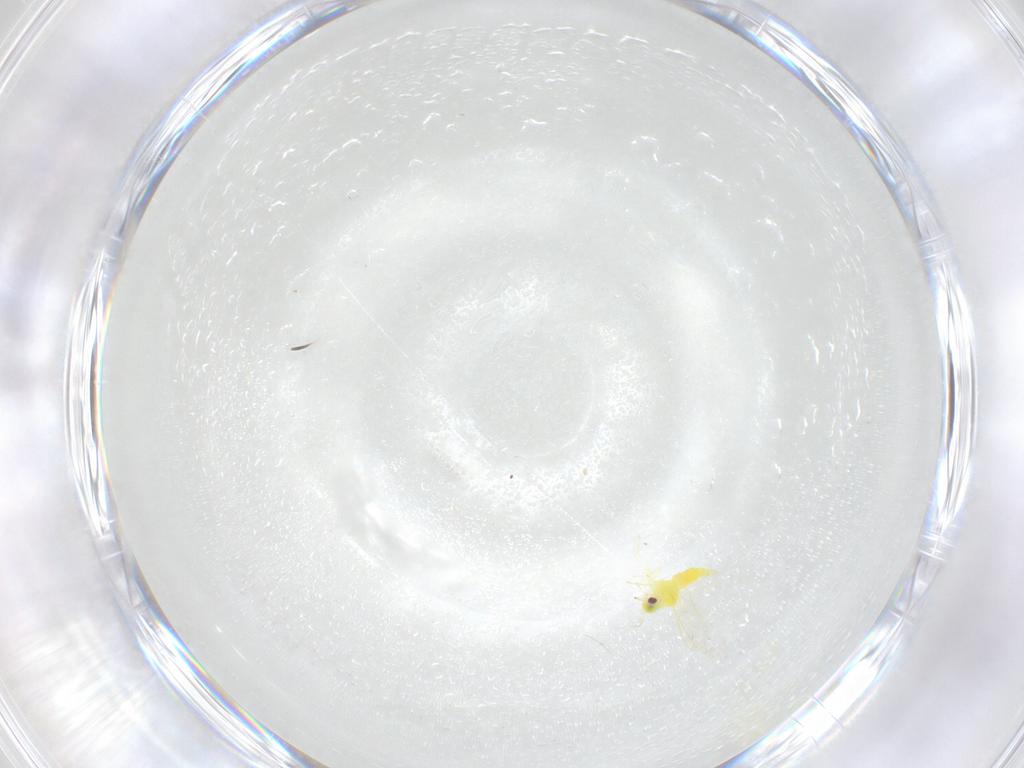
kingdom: Animalia
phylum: Arthropoda
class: Insecta
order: Hemiptera
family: Aleyrodidae
